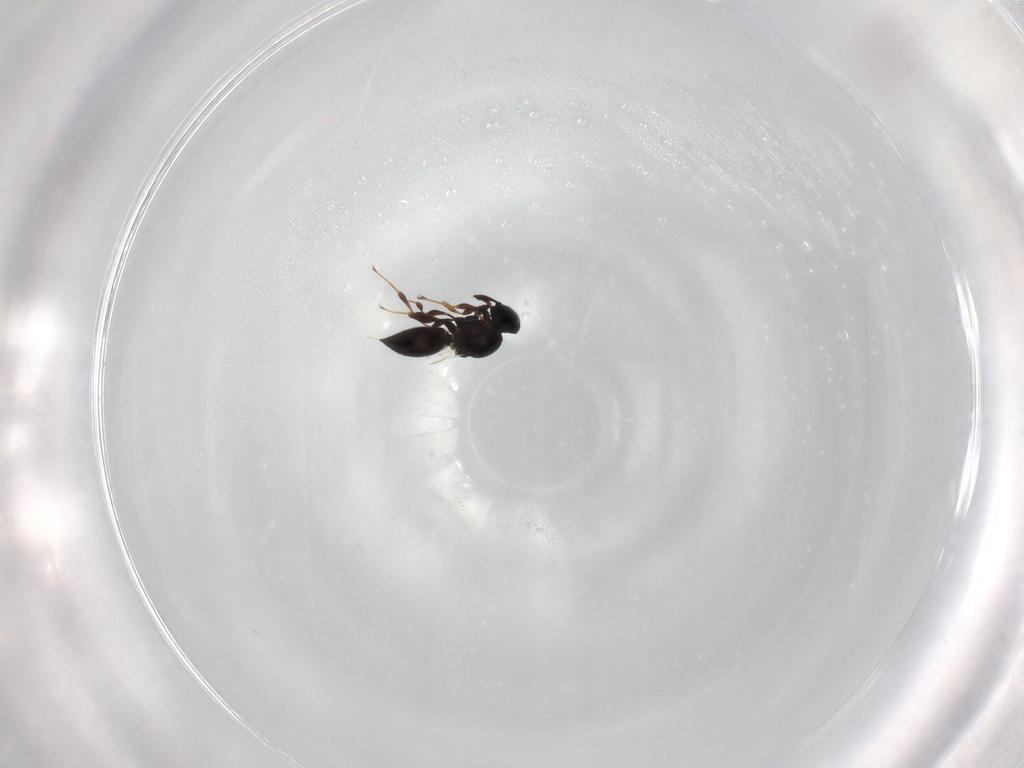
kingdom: Animalia
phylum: Arthropoda
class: Insecta
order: Hymenoptera
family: Platygastridae
